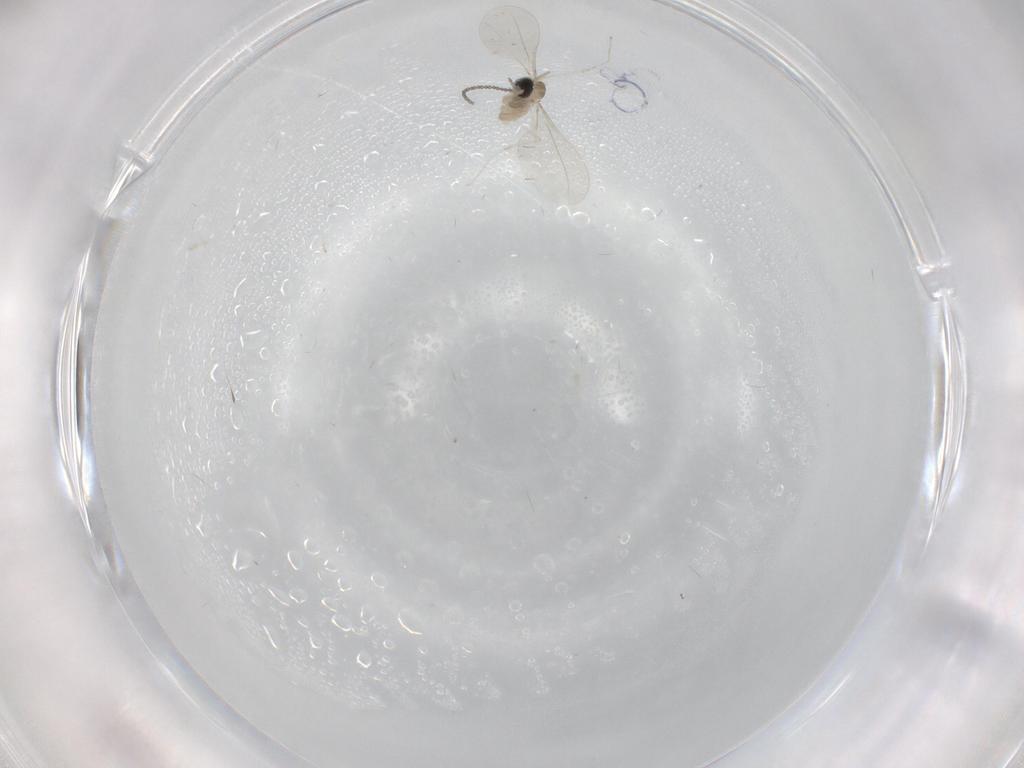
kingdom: Animalia
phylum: Arthropoda
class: Insecta
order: Diptera
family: Cecidomyiidae
